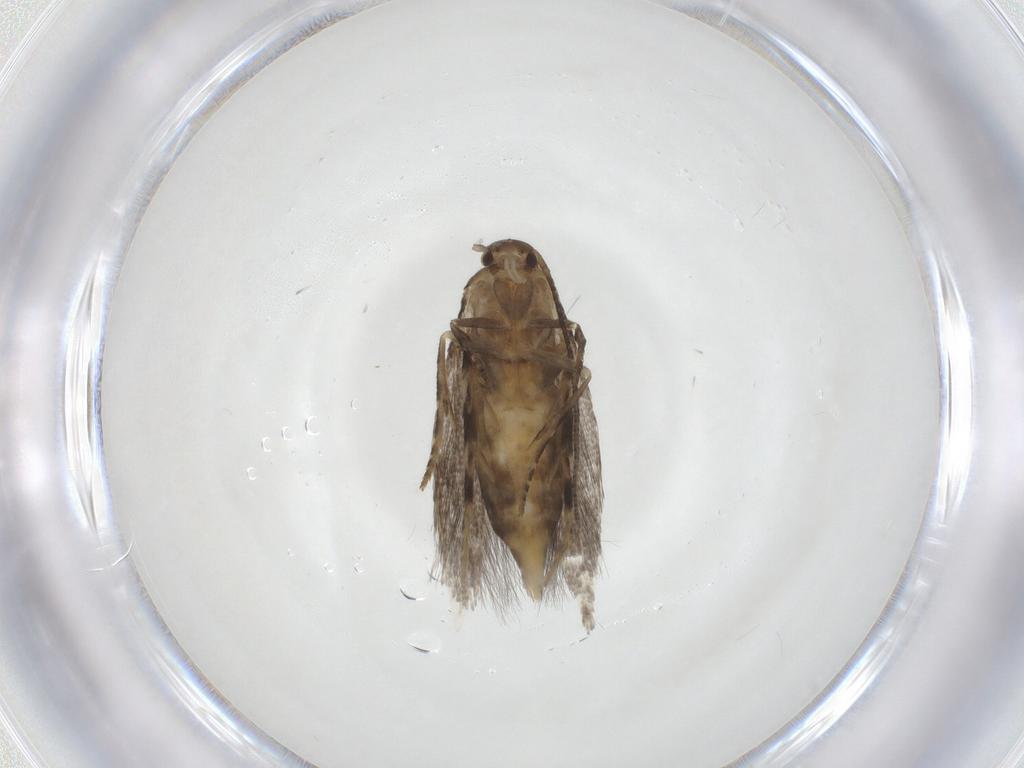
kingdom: Animalia
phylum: Arthropoda
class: Insecta
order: Lepidoptera
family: Elachistidae
